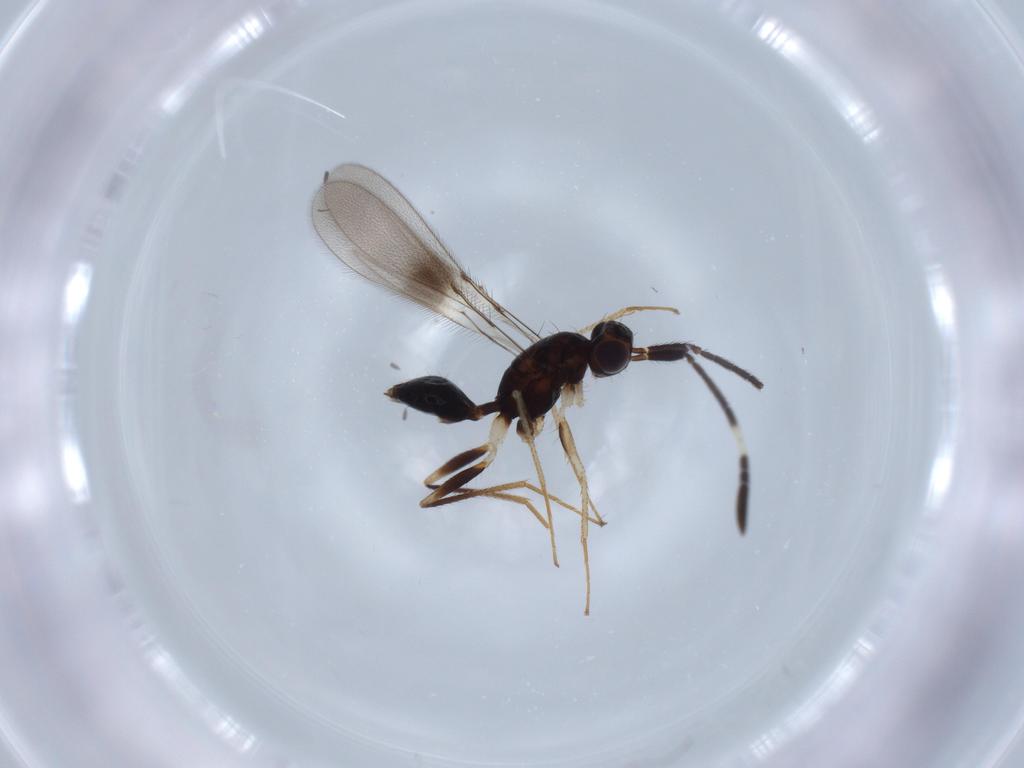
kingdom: Animalia
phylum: Arthropoda
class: Insecta
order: Hymenoptera
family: Mymaridae
